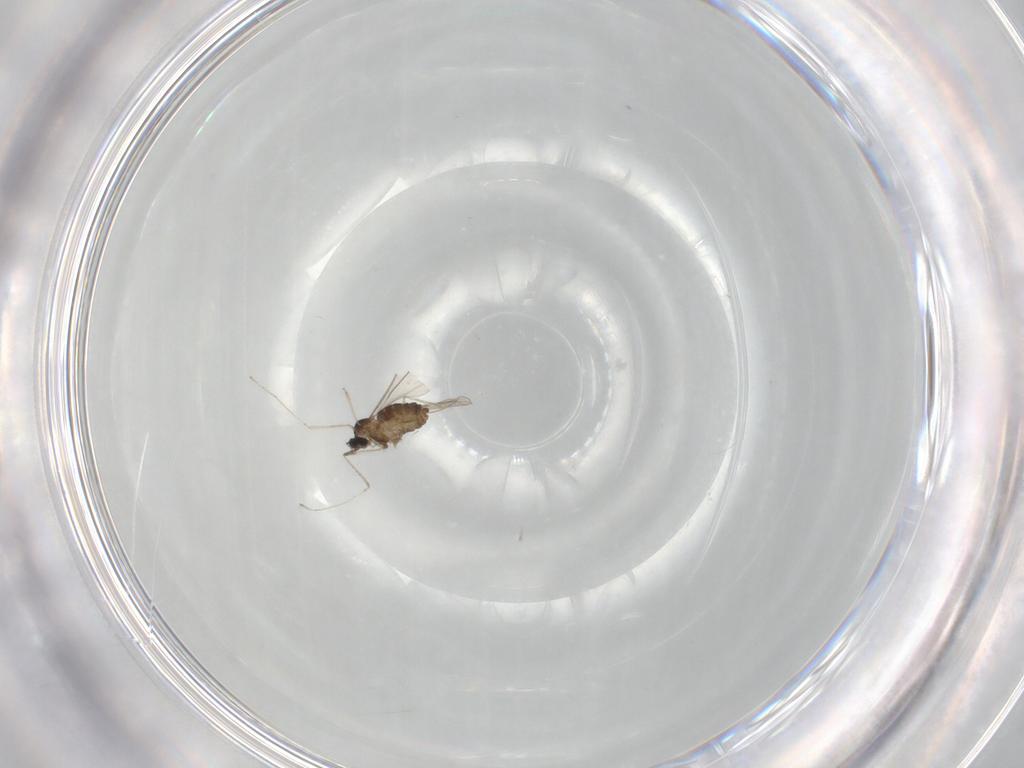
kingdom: Animalia
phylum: Arthropoda
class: Insecta
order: Diptera
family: Cecidomyiidae
